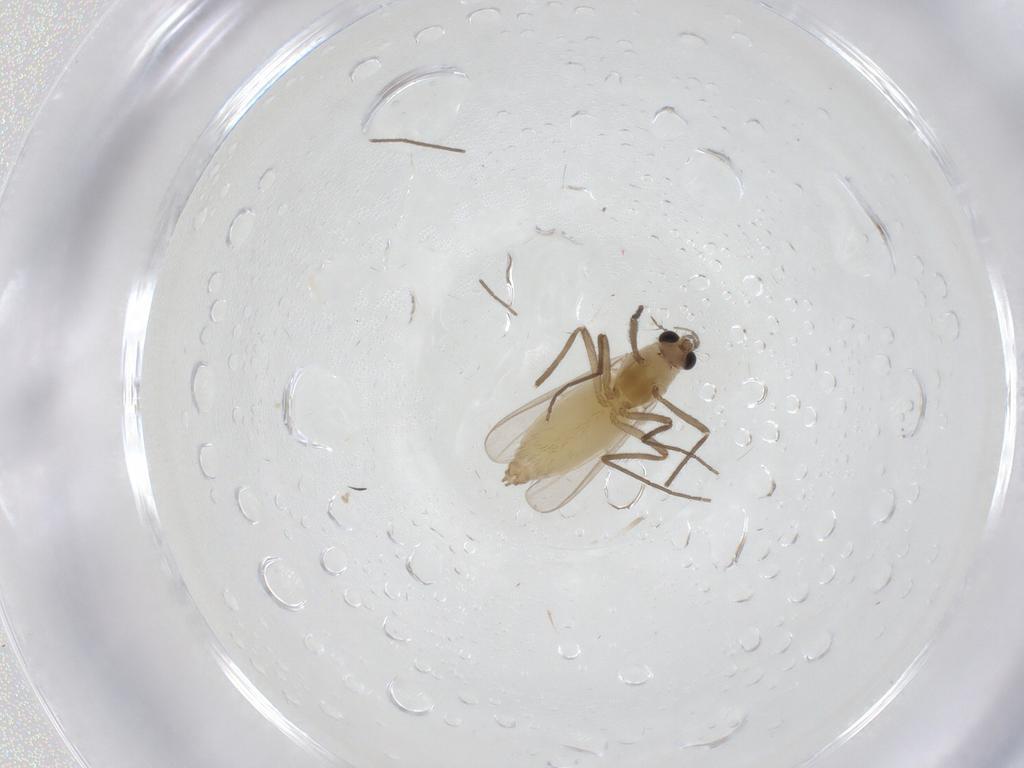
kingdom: Animalia
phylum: Arthropoda
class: Insecta
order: Diptera
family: Chironomidae
